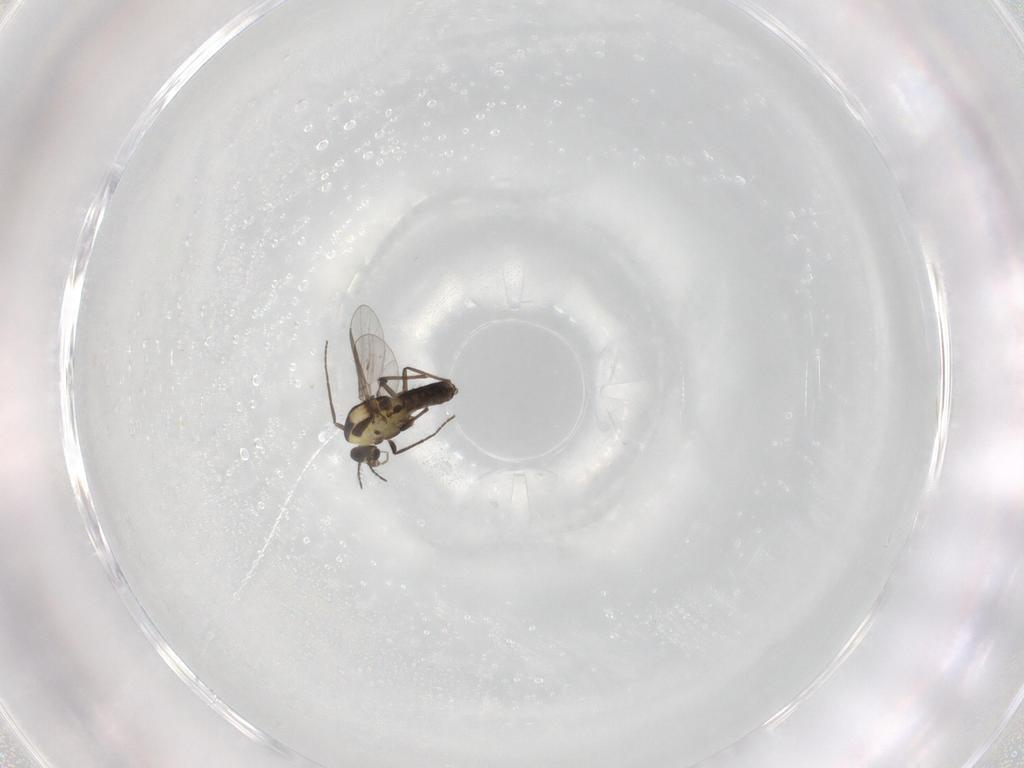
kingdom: Animalia
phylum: Arthropoda
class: Insecta
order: Diptera
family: Chironomidae
